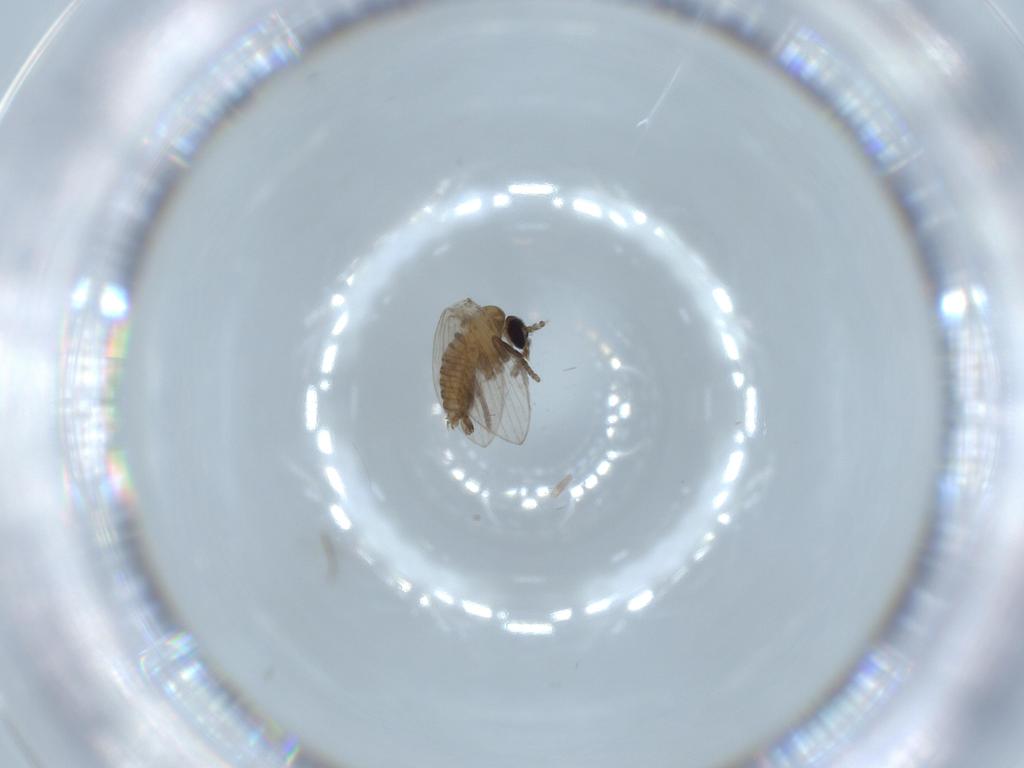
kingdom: Animalia
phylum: Arthropoda
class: Insecta
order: Diptera
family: Psychodidae
